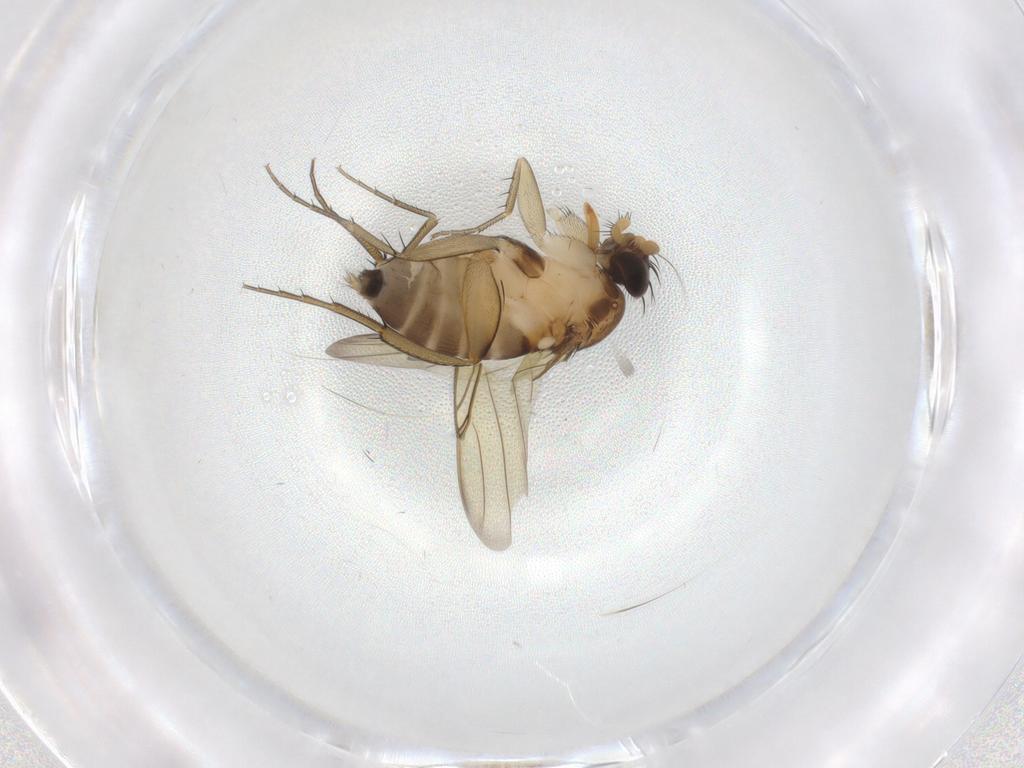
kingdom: Animalia
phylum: Arthropoda
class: Insecta
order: Diptera
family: Phoridae
